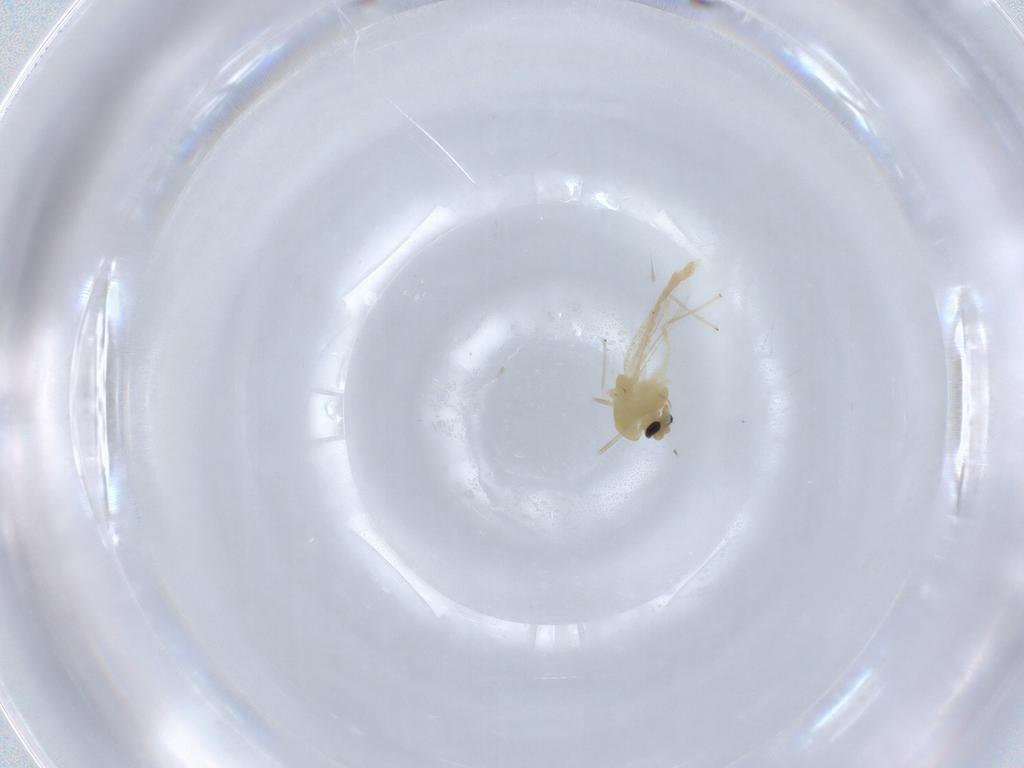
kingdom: Animalia
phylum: Arthropoda
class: Insecta
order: Diptera
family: Chironomidae
